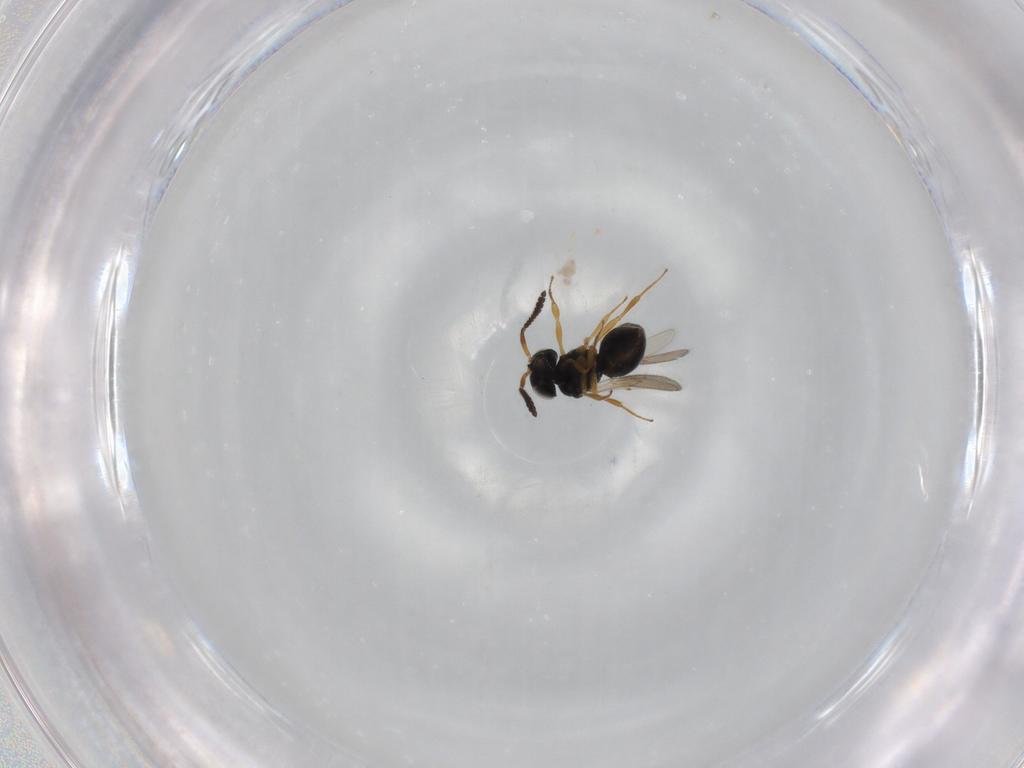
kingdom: Animalia
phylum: Arthropoda
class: Insecta
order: Hymenoptera
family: Scelionidae
